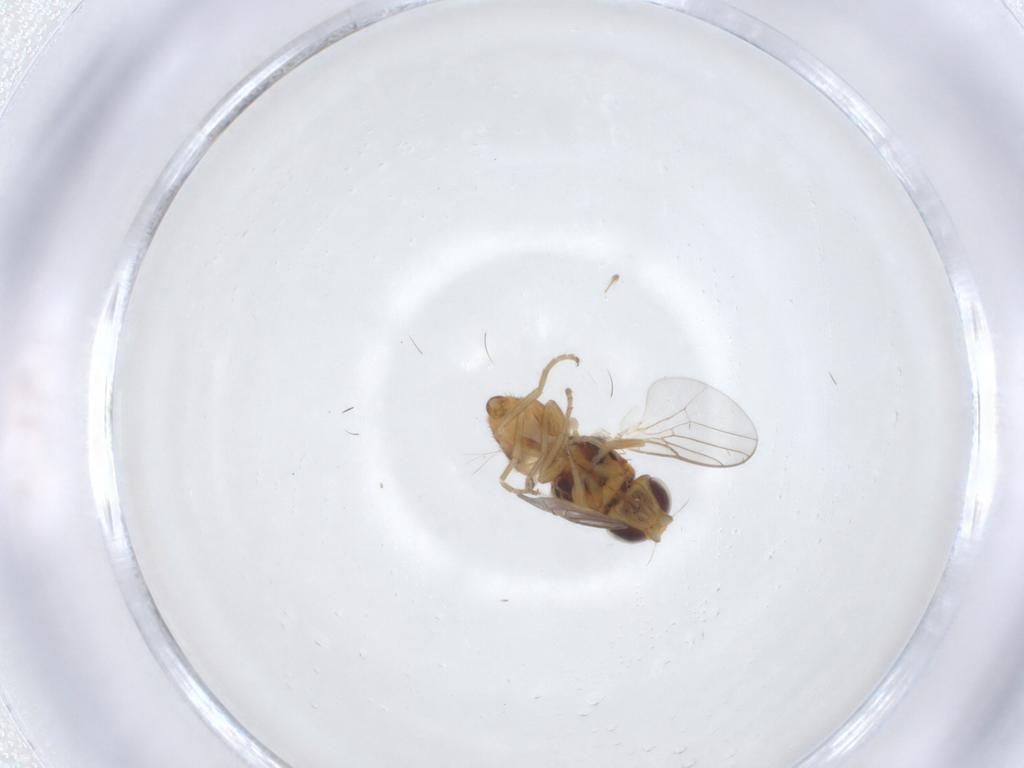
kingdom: Animalia
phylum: Arthropoda
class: Insecta
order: Diptera
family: Chloropidae
